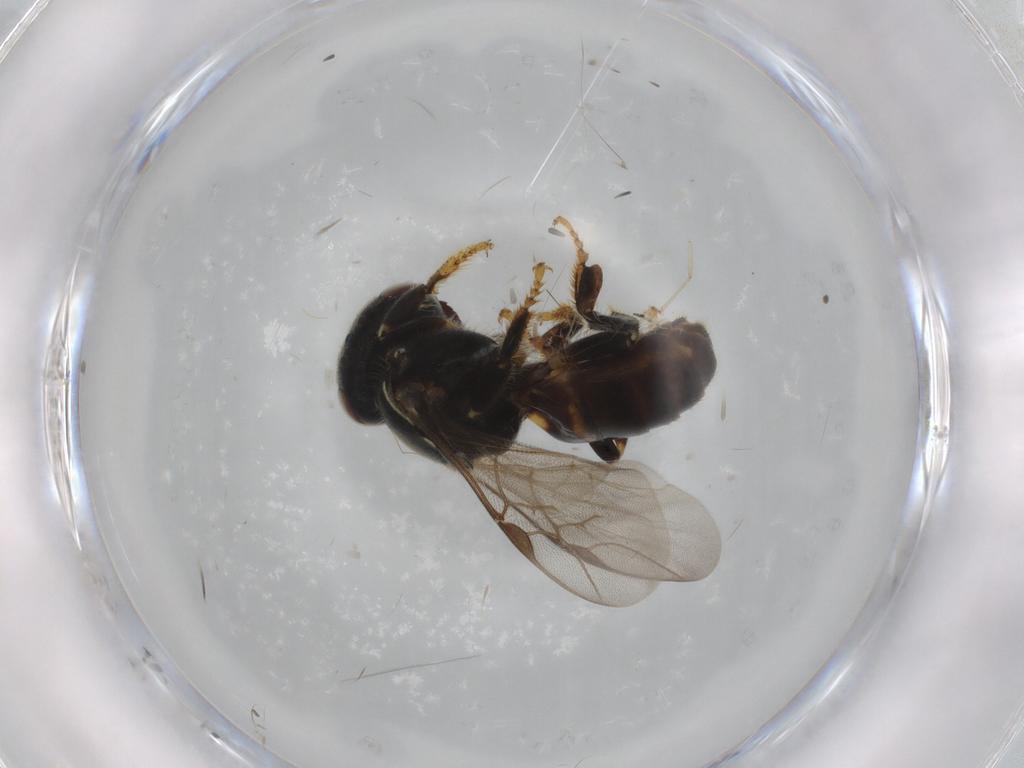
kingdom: Animalia
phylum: Arthropoda
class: Insecta
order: Hymenoptera
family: Apidae
